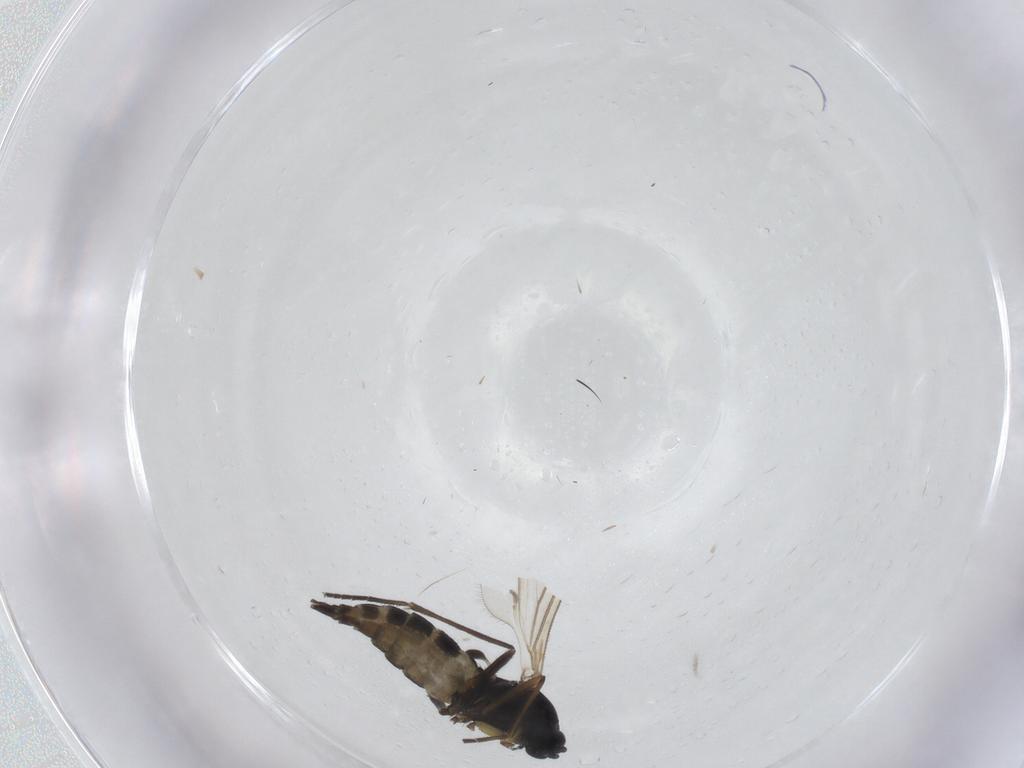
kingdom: Animalia
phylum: Arthropoda
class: Insecta
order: Diptera
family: Sciaridae
